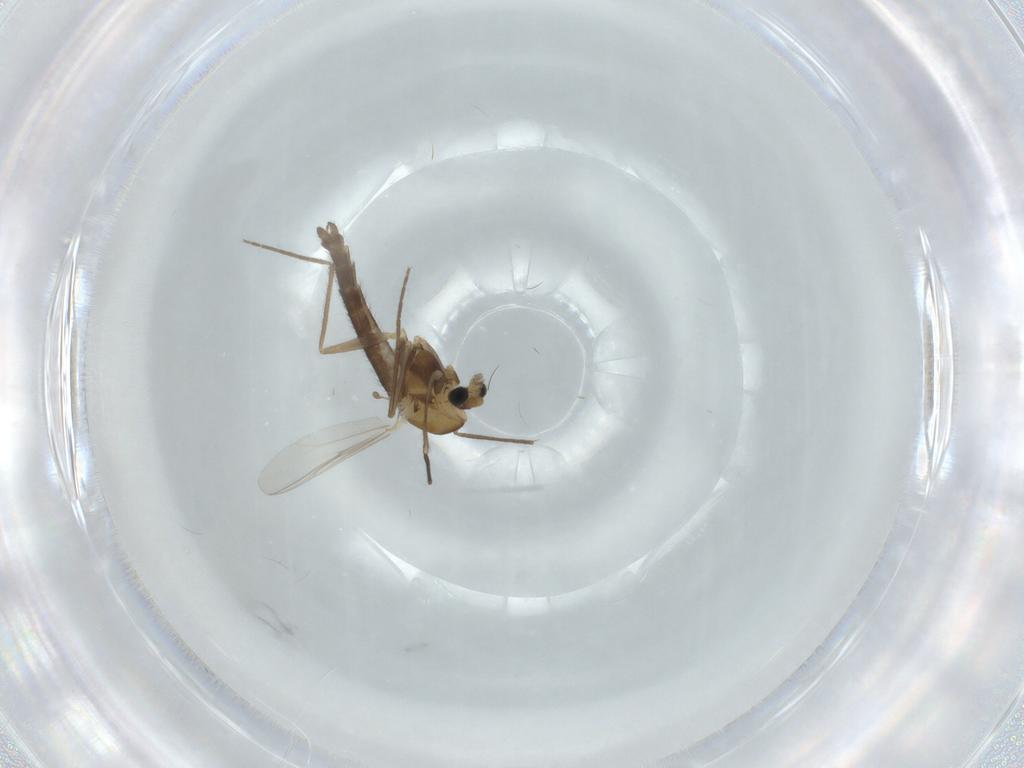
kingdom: Animalia
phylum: Arthropoda
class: Insecta
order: Diptera
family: Chironomidae
